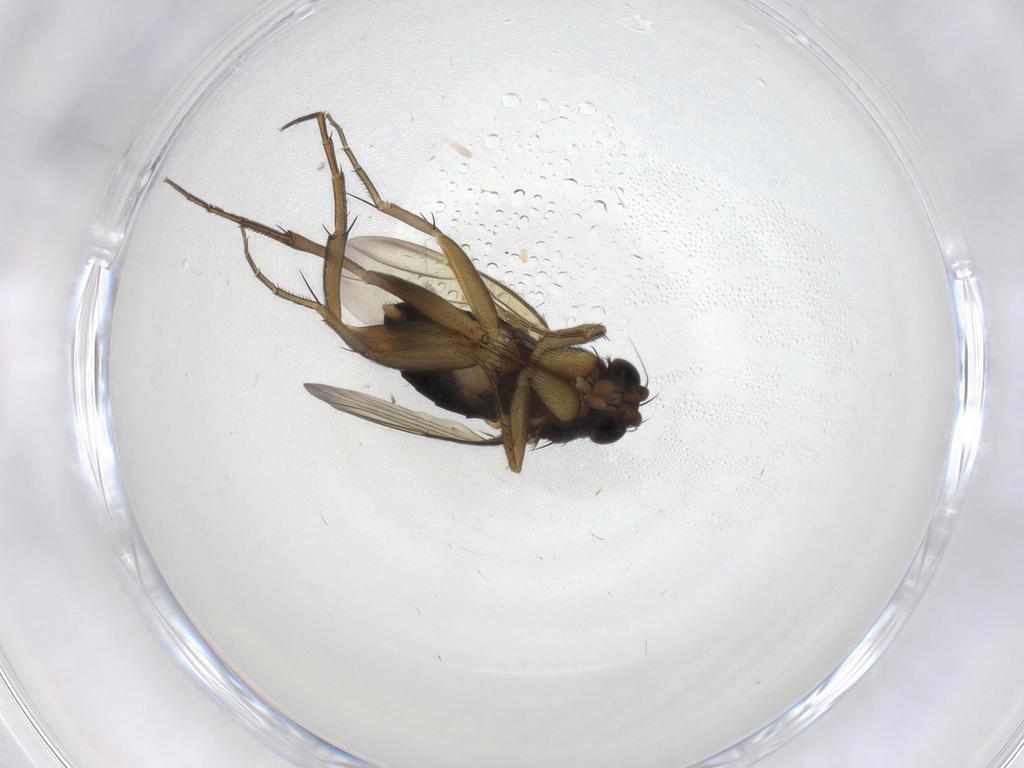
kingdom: Animalia
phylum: Arthropoda
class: Insecta
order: Diptera
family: Phoridae
